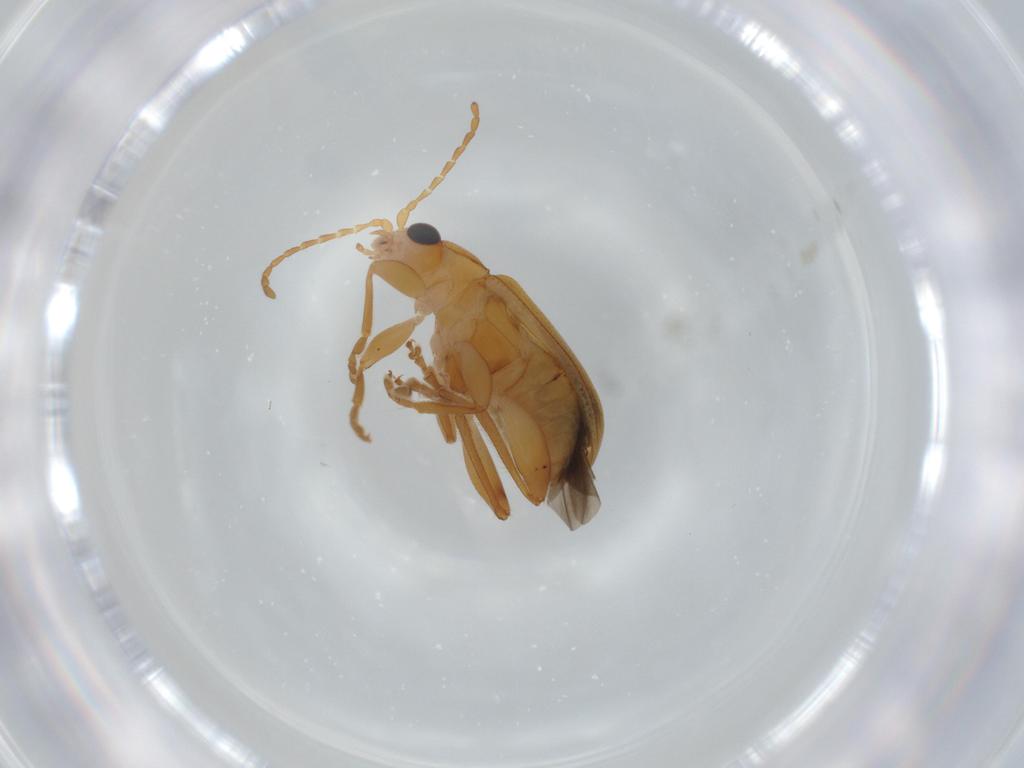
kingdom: Animalia
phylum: Arthropoda
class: Insecta
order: Coleoptera
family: Chrysomelidae
